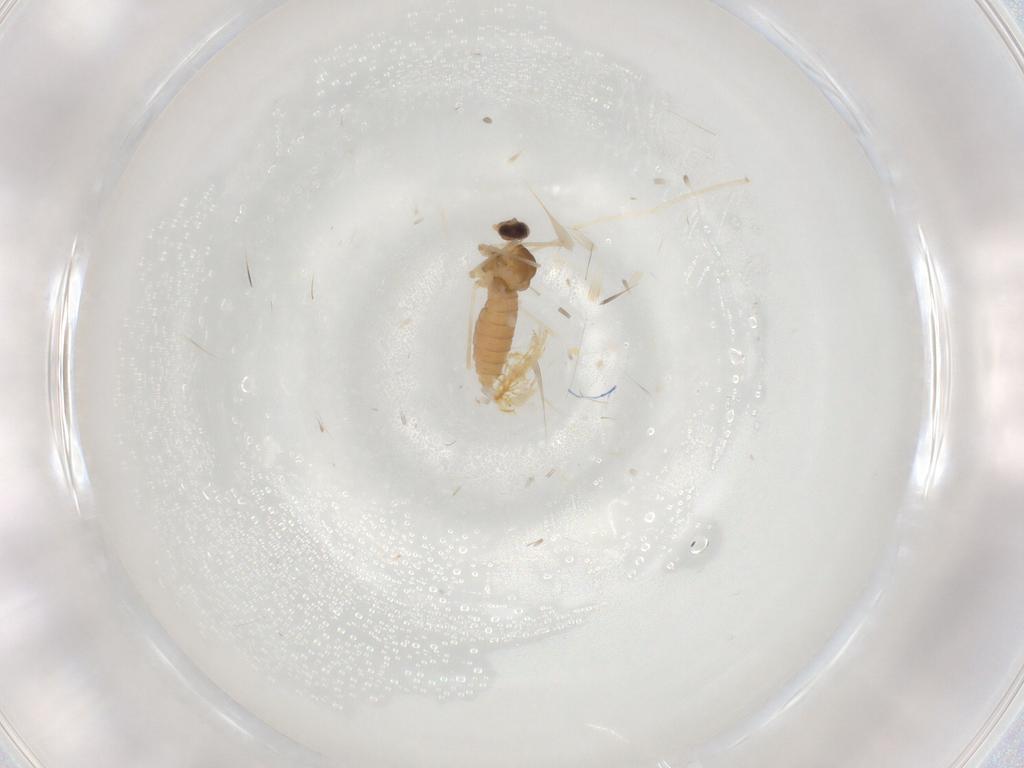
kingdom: Animalia
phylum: Arthropoda
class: Insecta
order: Diptera
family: Cecidomyiidae
